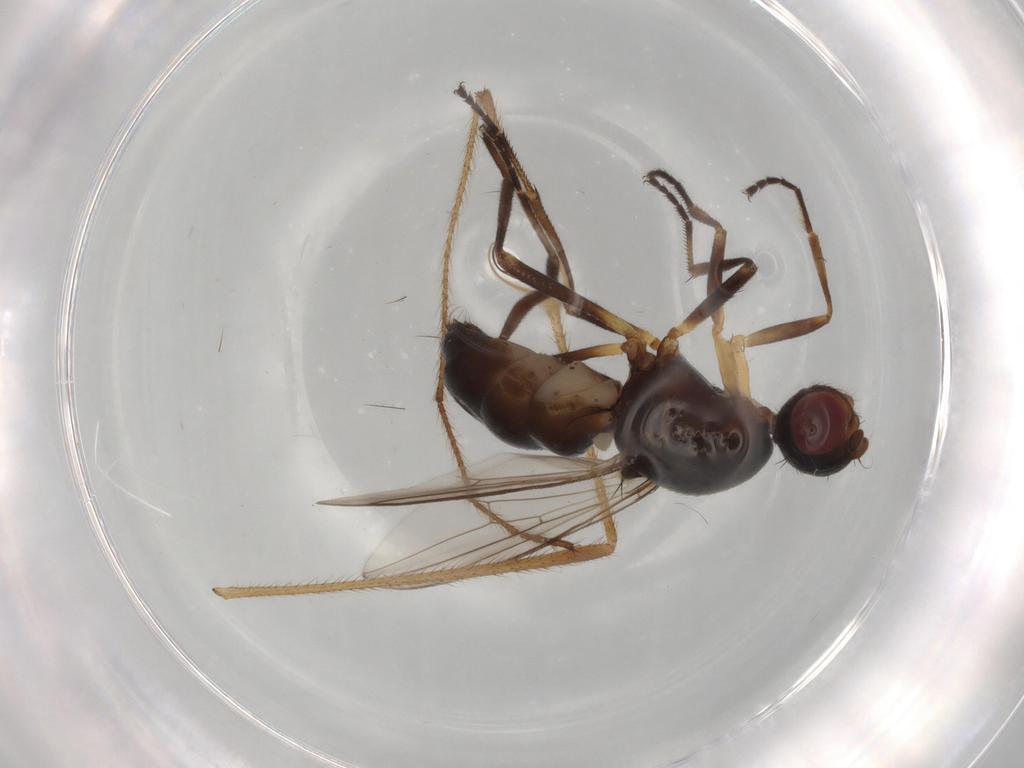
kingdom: Animalia
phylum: Arthropoda
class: Insecta
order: Diptera
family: Limoniidae
